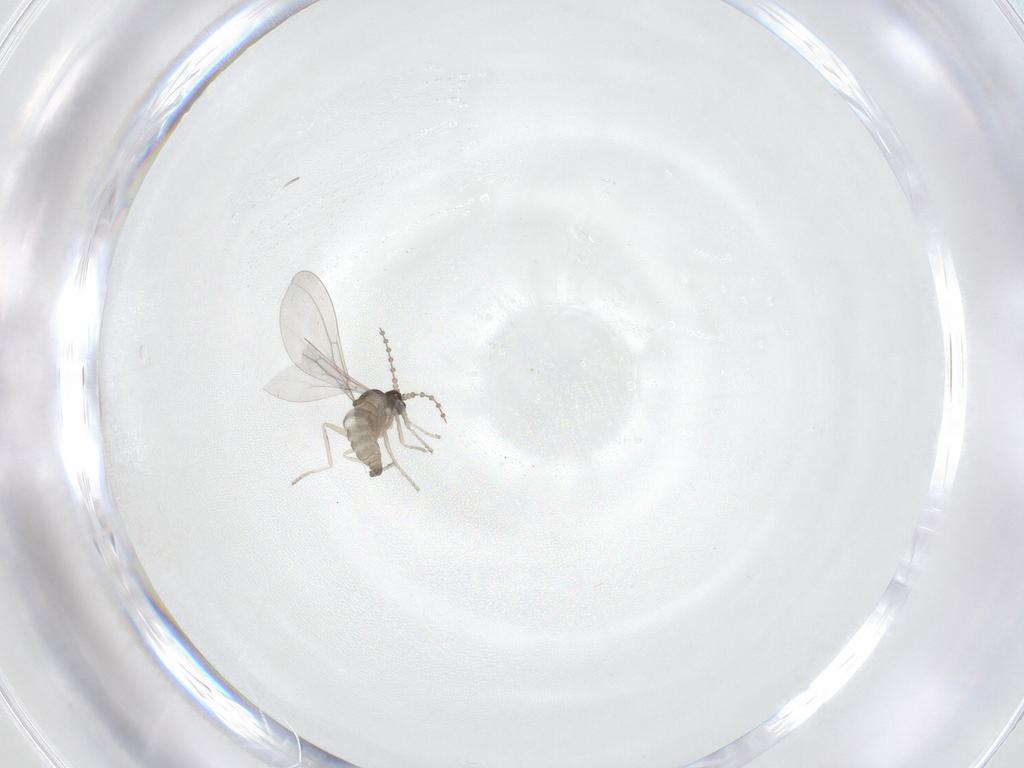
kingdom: Animalia
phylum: Arthropoda
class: Insecta
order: Diptera
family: Cecidomyiidae
